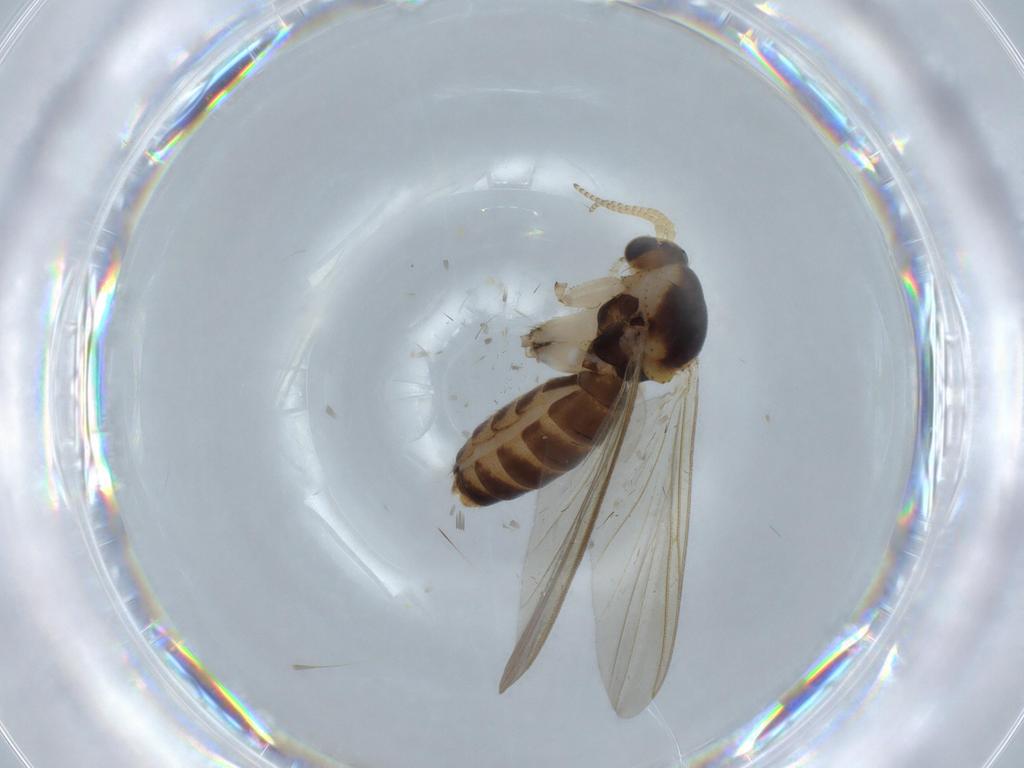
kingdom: Animalia
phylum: Arthropoda
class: Insecta
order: Diptera
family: Mycetophilidae
